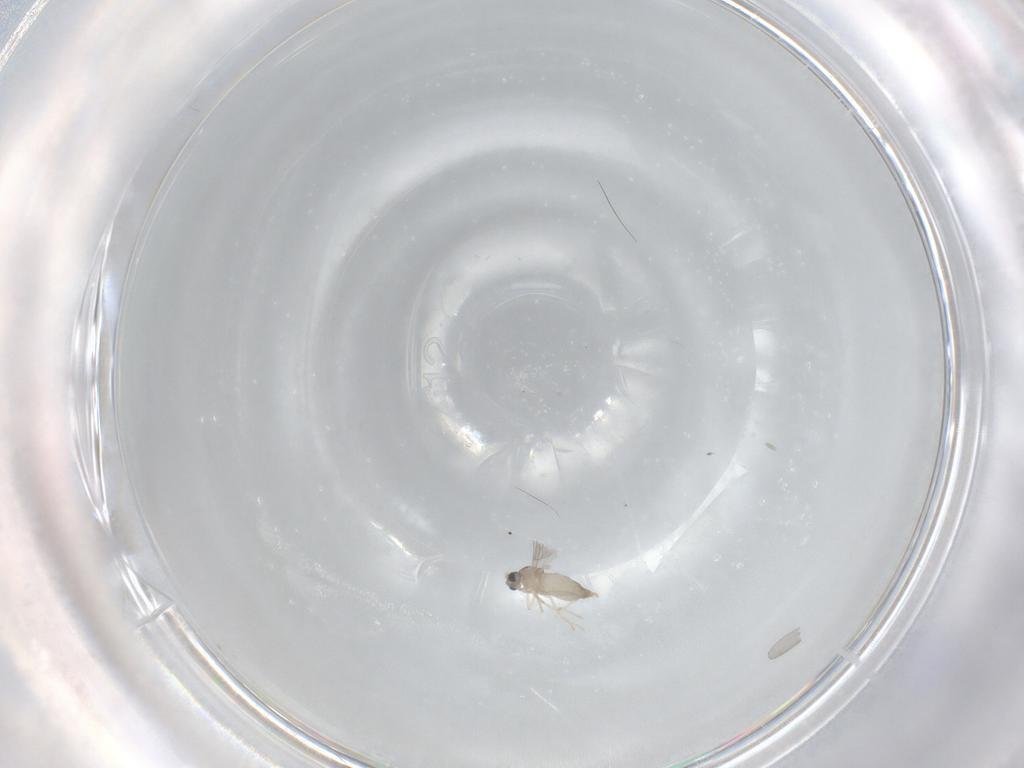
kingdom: Animalia
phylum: Arthropoda
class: Insecta
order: Diptera
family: Cecidomyiidae
